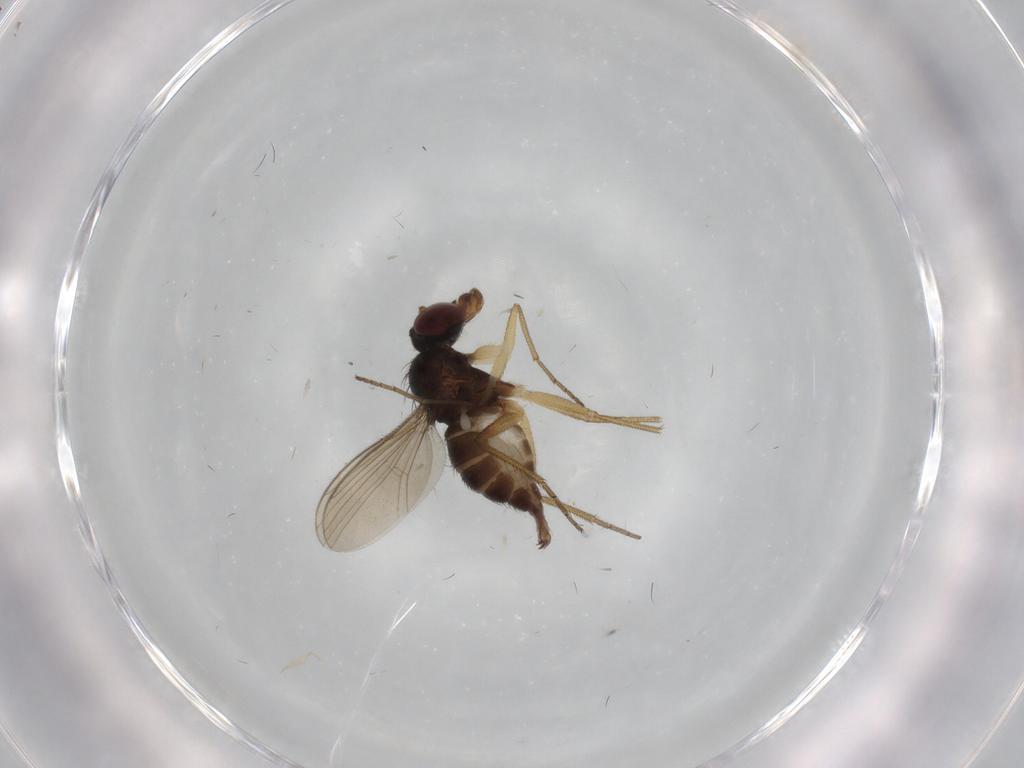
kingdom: Animalia
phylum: Arthropoda
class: Insecta
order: Diptera
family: Dolichopodidae
